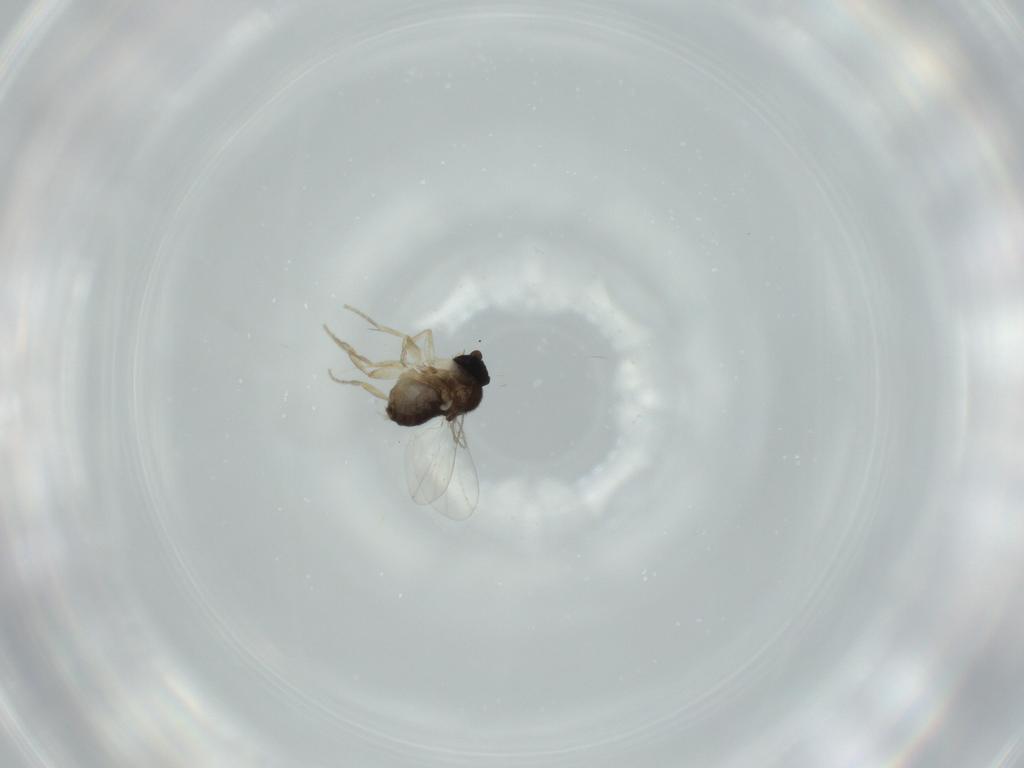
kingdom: Animalia
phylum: Arthropoda
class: Insecta
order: Diptera
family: Phoridae
